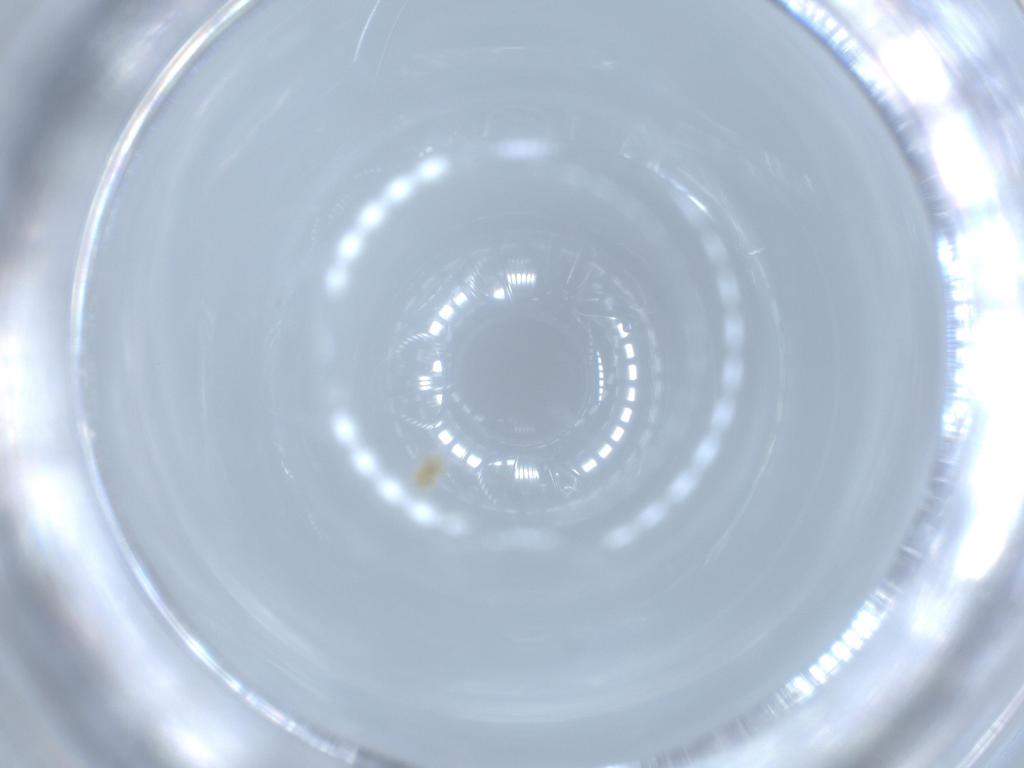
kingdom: Animalia
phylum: Arthropoda
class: Arachnida
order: Trombidiformes
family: Eupodidae
